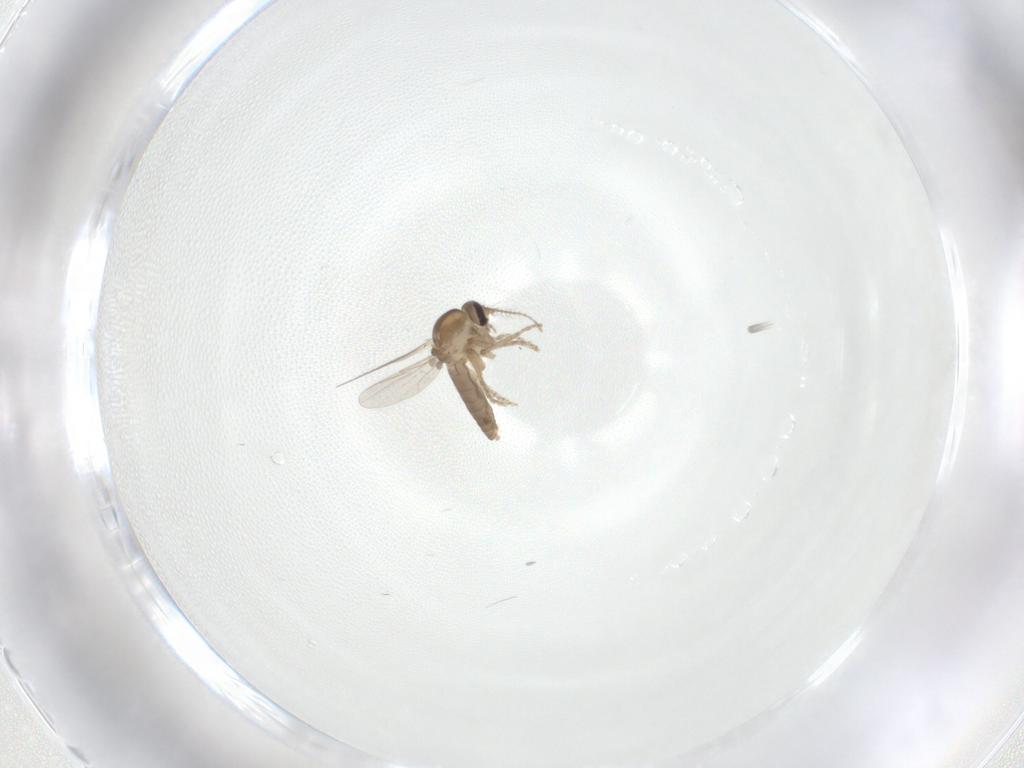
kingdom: Animalia
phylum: Arthropoda
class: Insecta
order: Diptera
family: Ceratopogonidae
